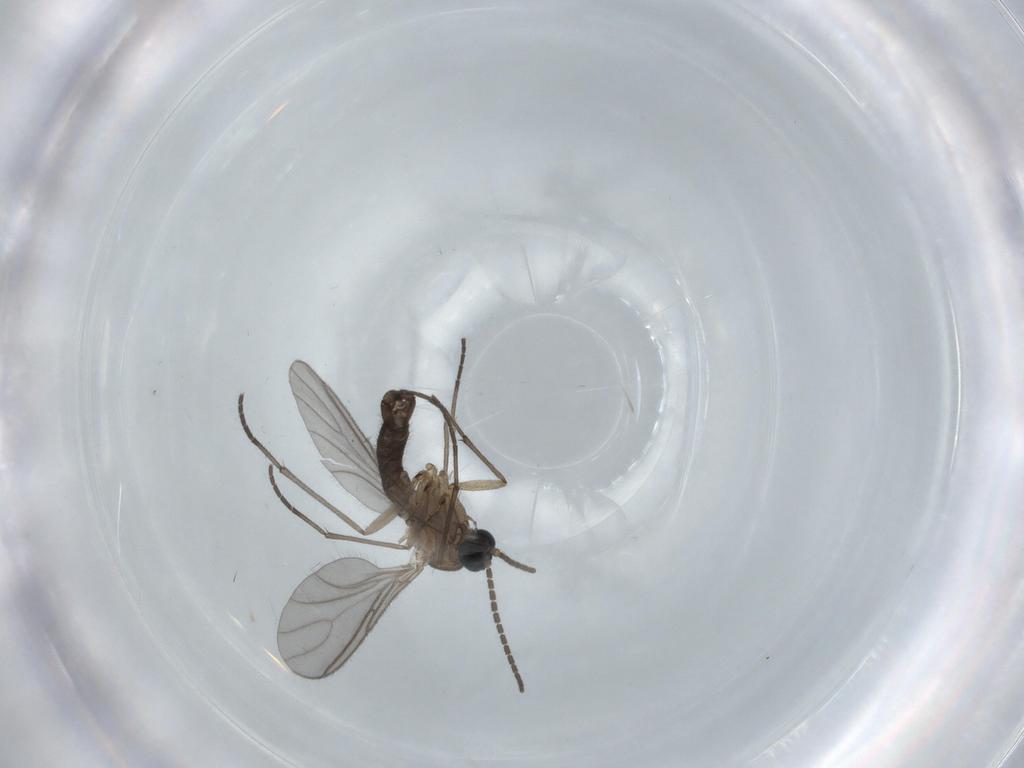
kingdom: Animalia
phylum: Arthropoda
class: Insecta
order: Diptera
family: Sciaridae
